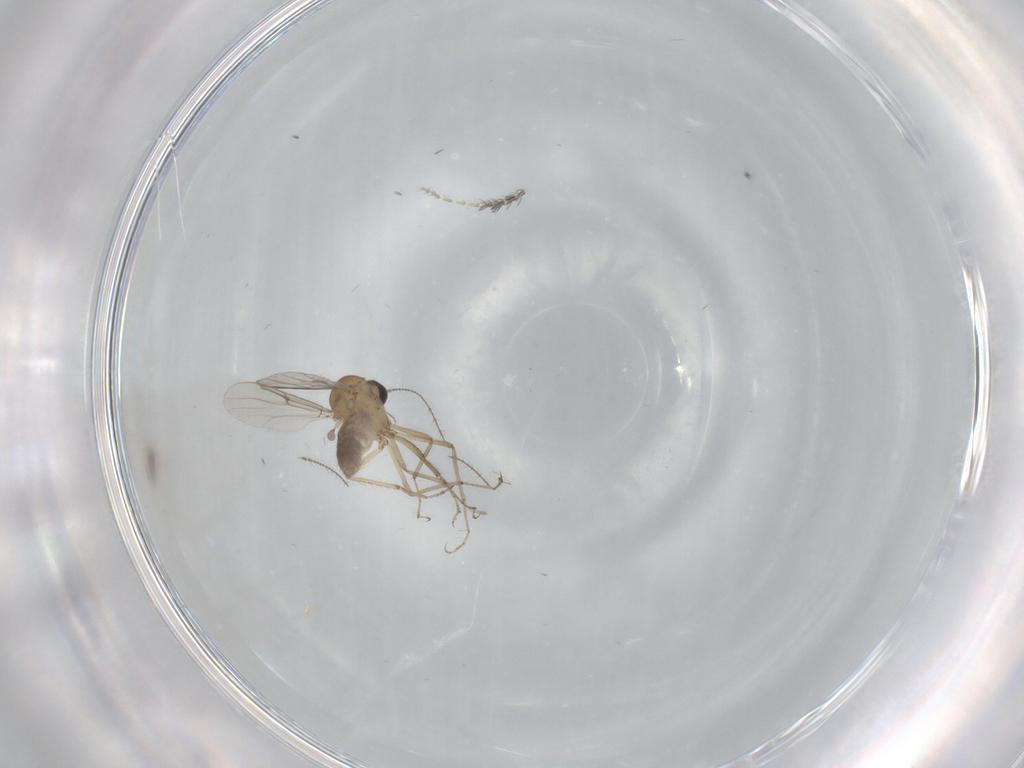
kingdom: Animalia
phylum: Arthropoda
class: Insecta
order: Diptera
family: Ceratopogonidae
